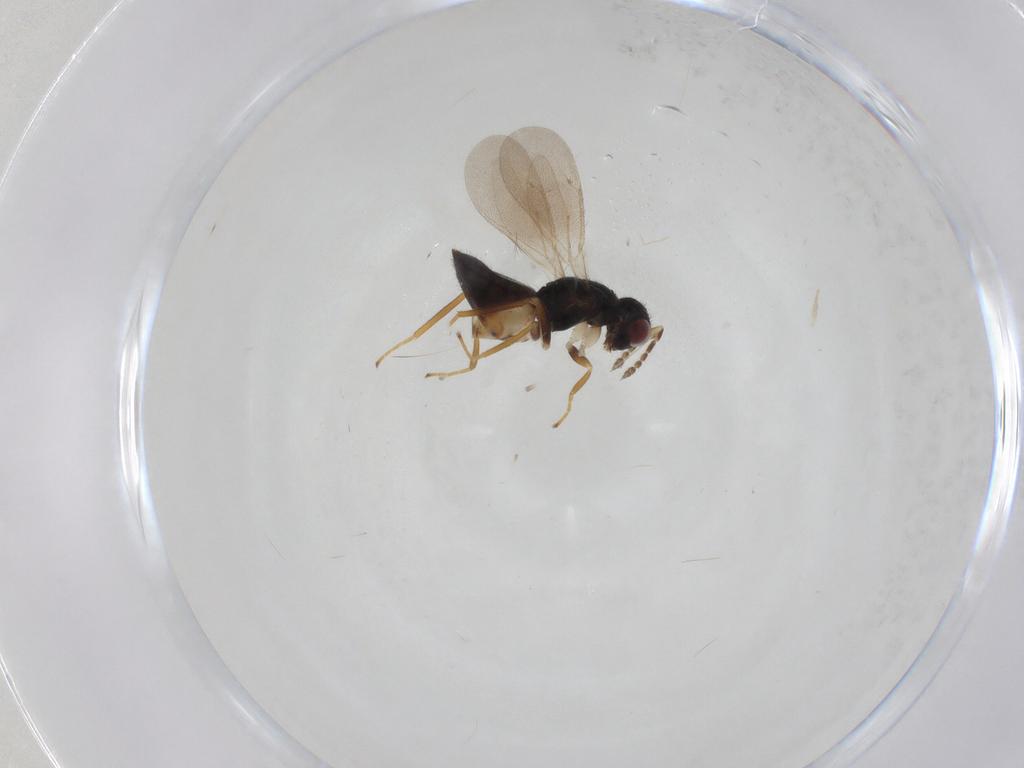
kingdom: Animalia
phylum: Arthropoda
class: Insecta
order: Hymenoptera
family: Eulophidae
